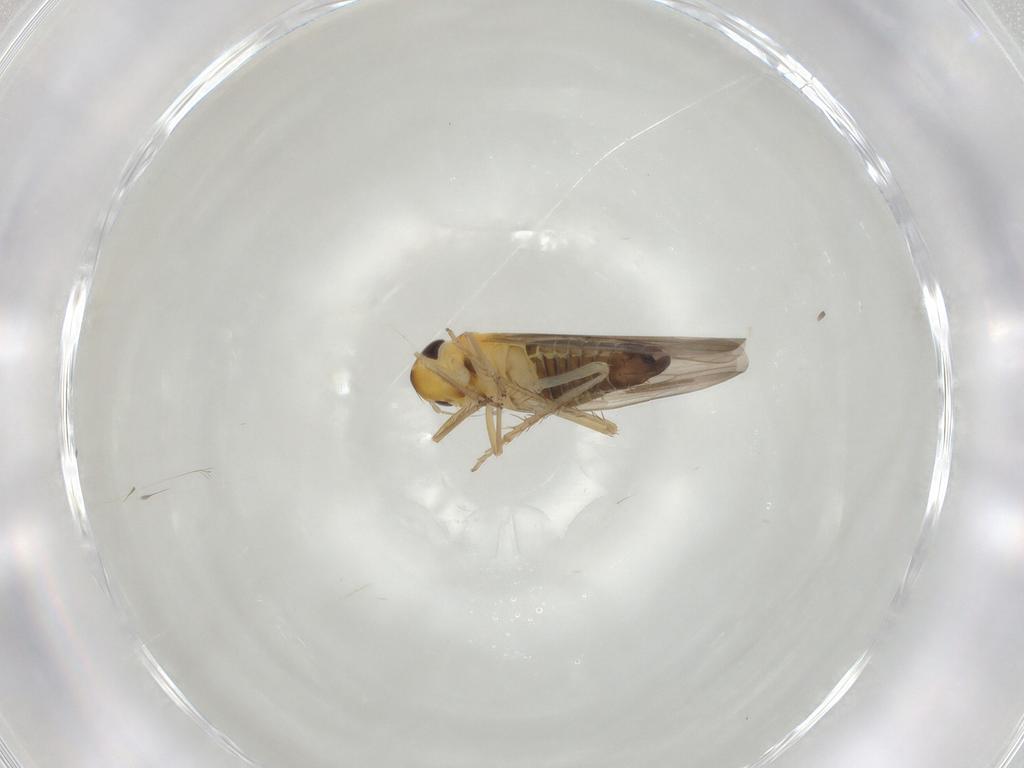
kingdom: Animalia
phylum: Arthropoda
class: Insecta
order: Hemiptera
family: Cicadellidae
